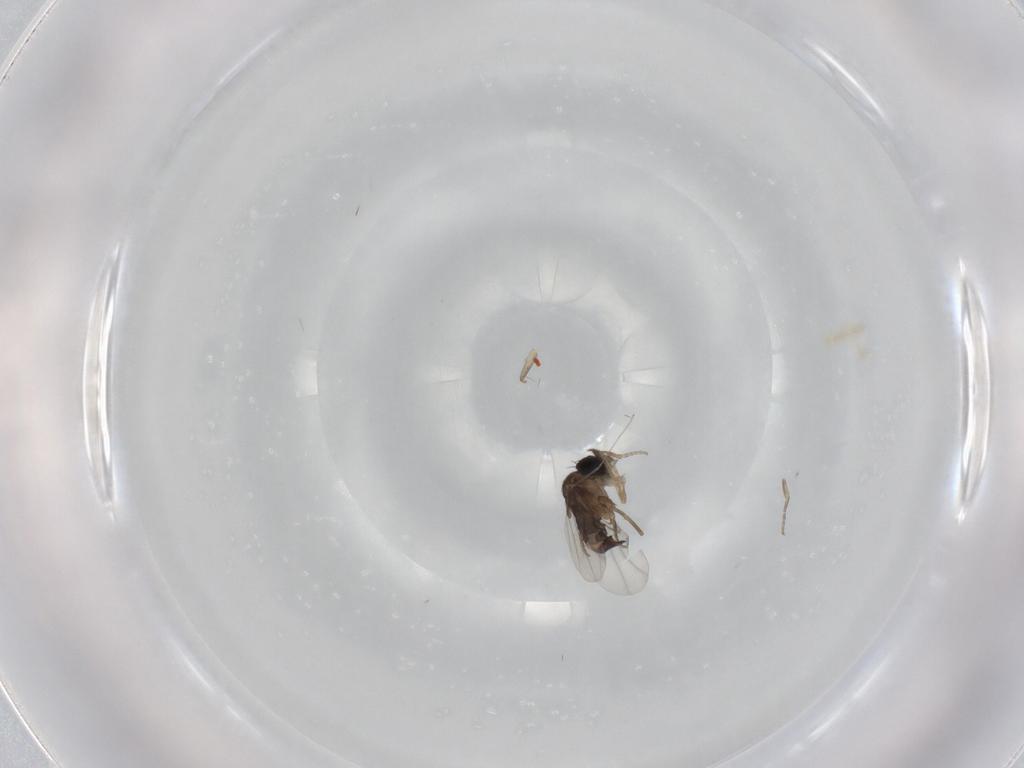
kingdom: Animalia
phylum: Arthropoda
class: Insecta
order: Diptera
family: Phoridae
